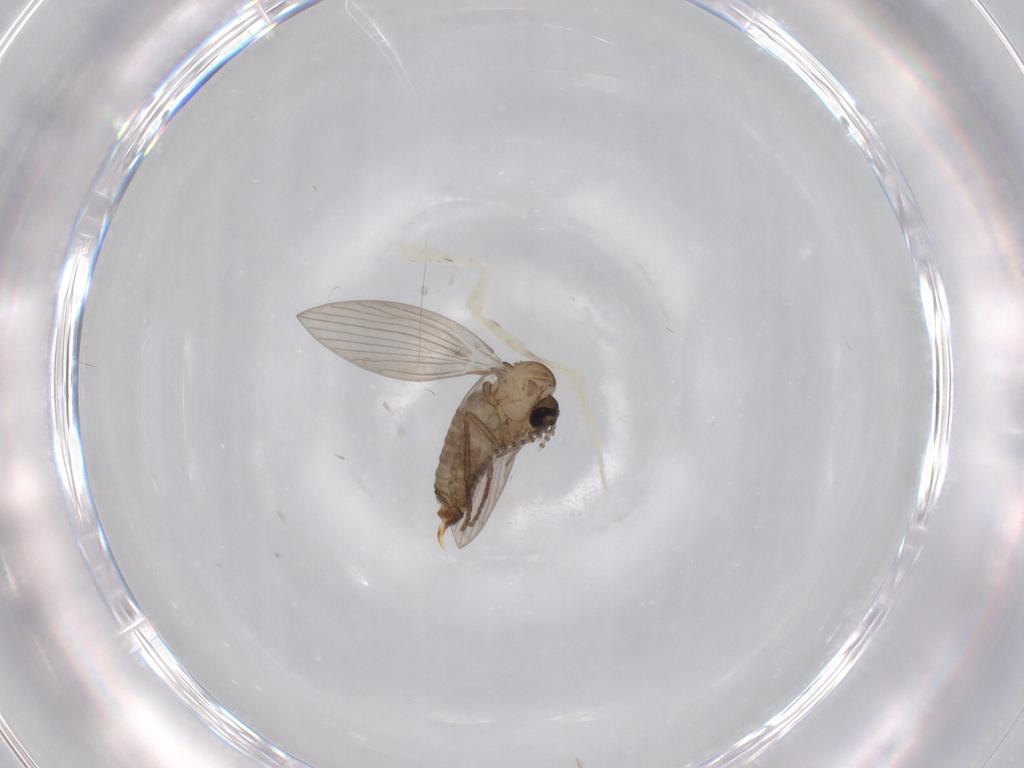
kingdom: Animalia
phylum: Arthropoda
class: Insecta
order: Diptera
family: Psychodidae
